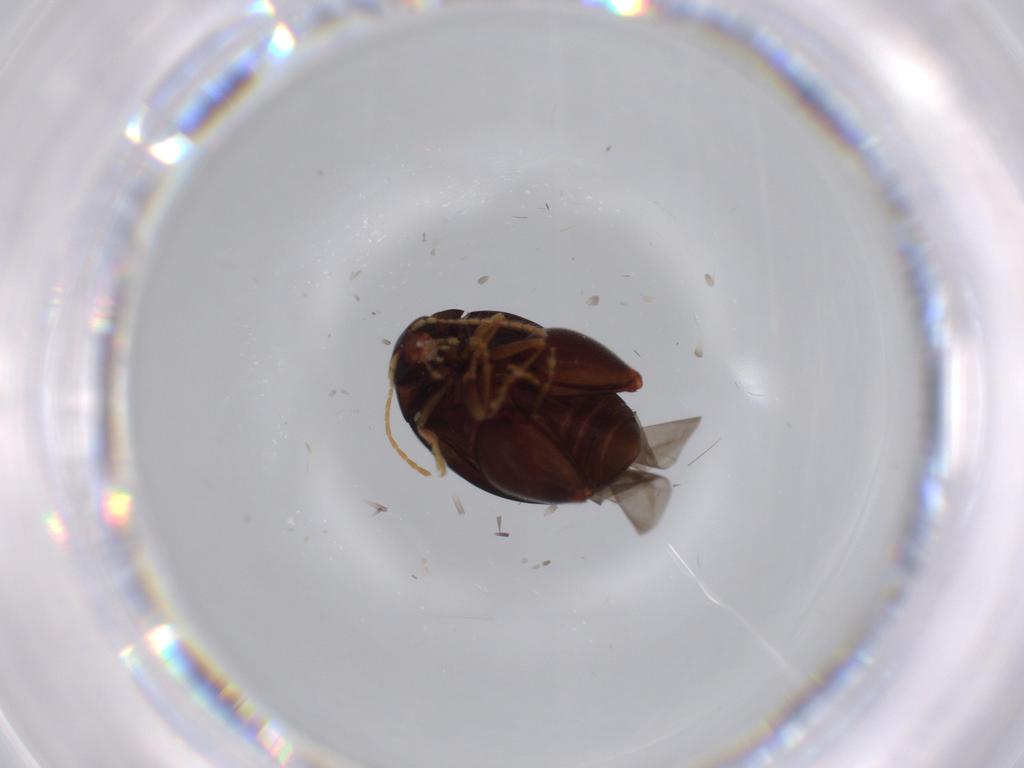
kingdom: Animalia
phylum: Arthropoda
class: Insecta
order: Coleoptera
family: Chrysomelidae
